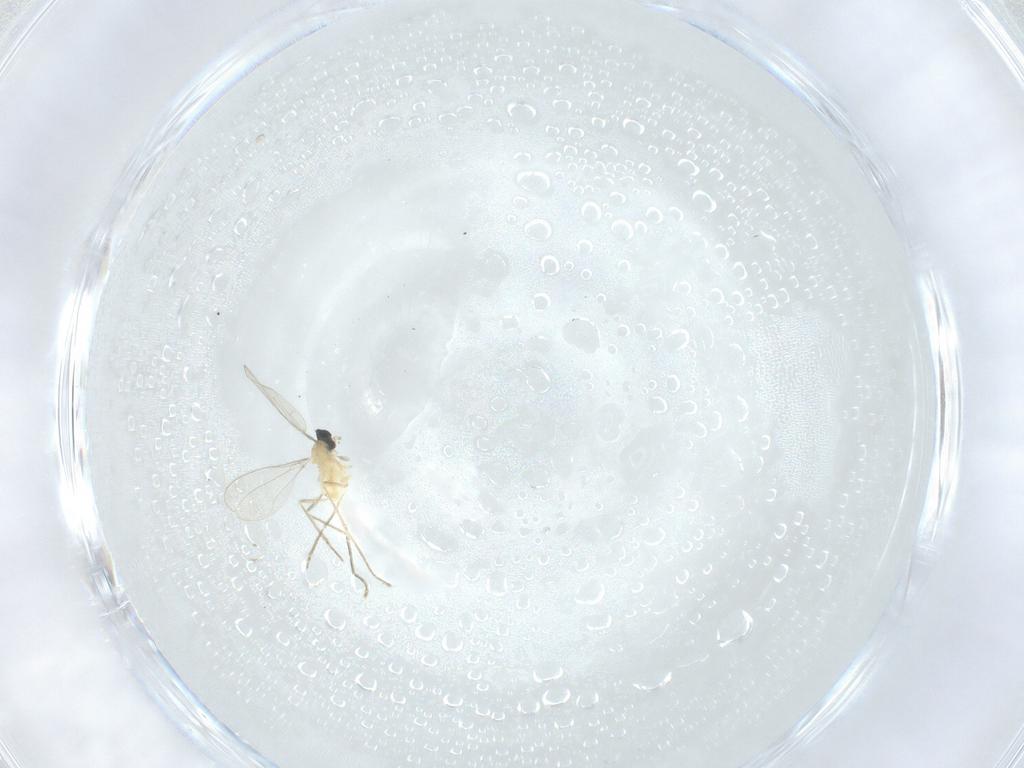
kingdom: Animalia
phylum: Arthropoda
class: Insecta
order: Diptera
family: Cecidomyiidae
